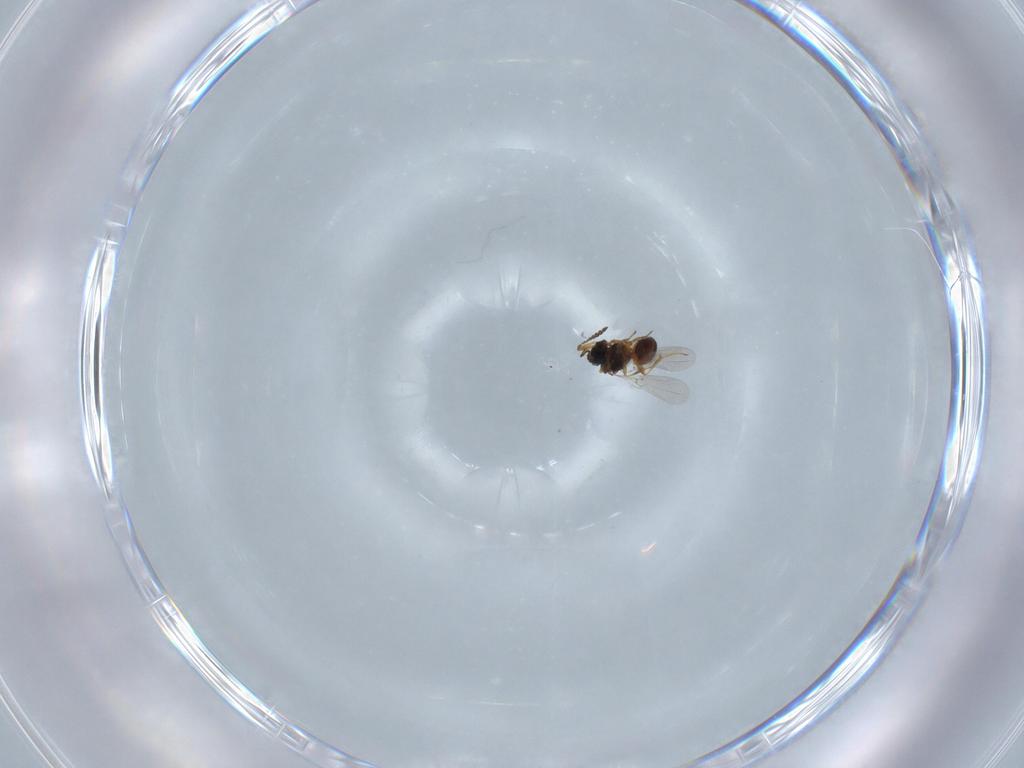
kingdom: Animalia
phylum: Arthropoda
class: Insecta
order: Hymenoptera
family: Platygastridae
